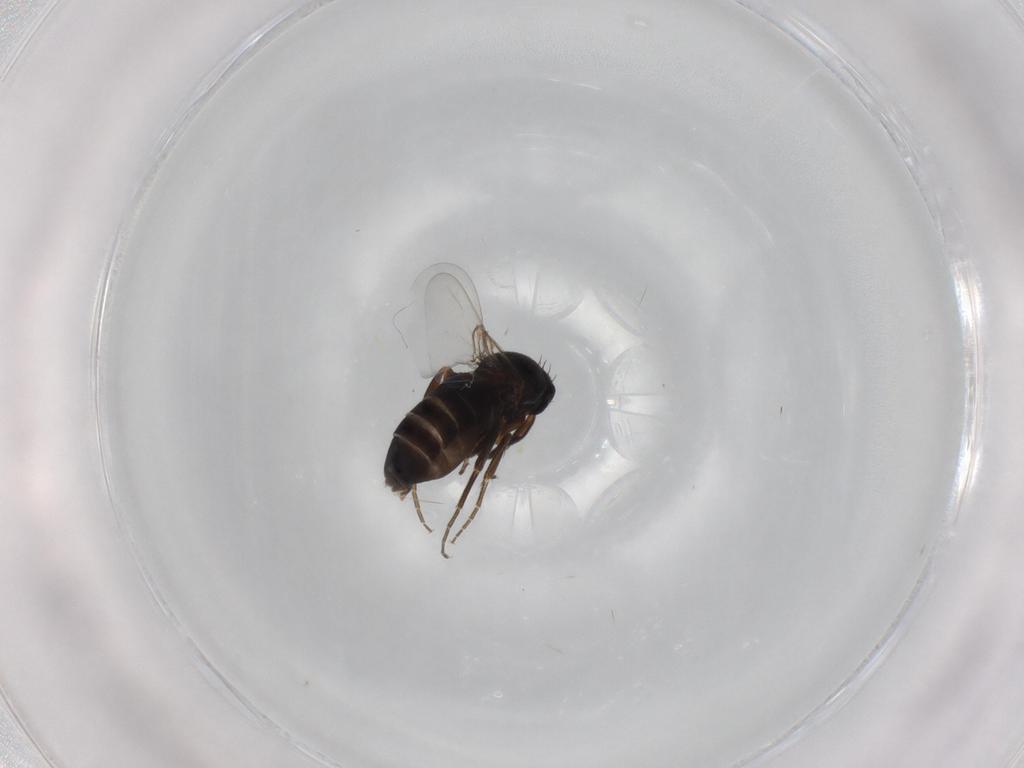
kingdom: Animalia
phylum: Arthropoda
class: Insecta
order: Diptera
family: Phoridae
